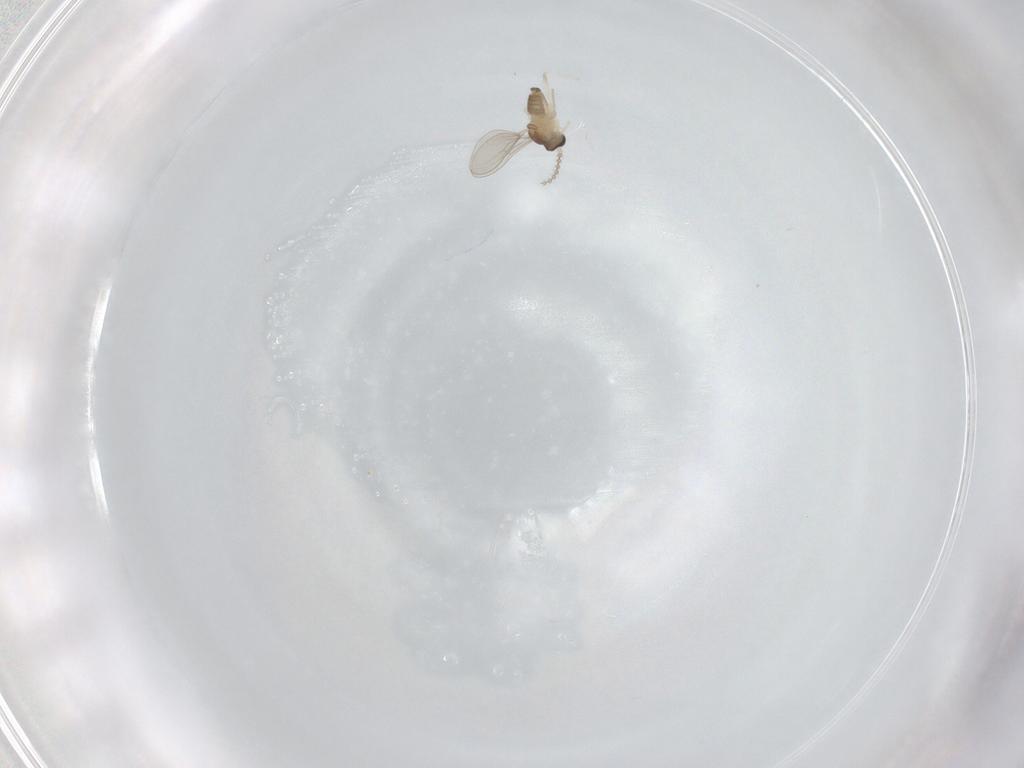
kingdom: Animalia
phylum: Arthropoda
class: Insecta
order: Diptera
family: Cecidomyiidae
